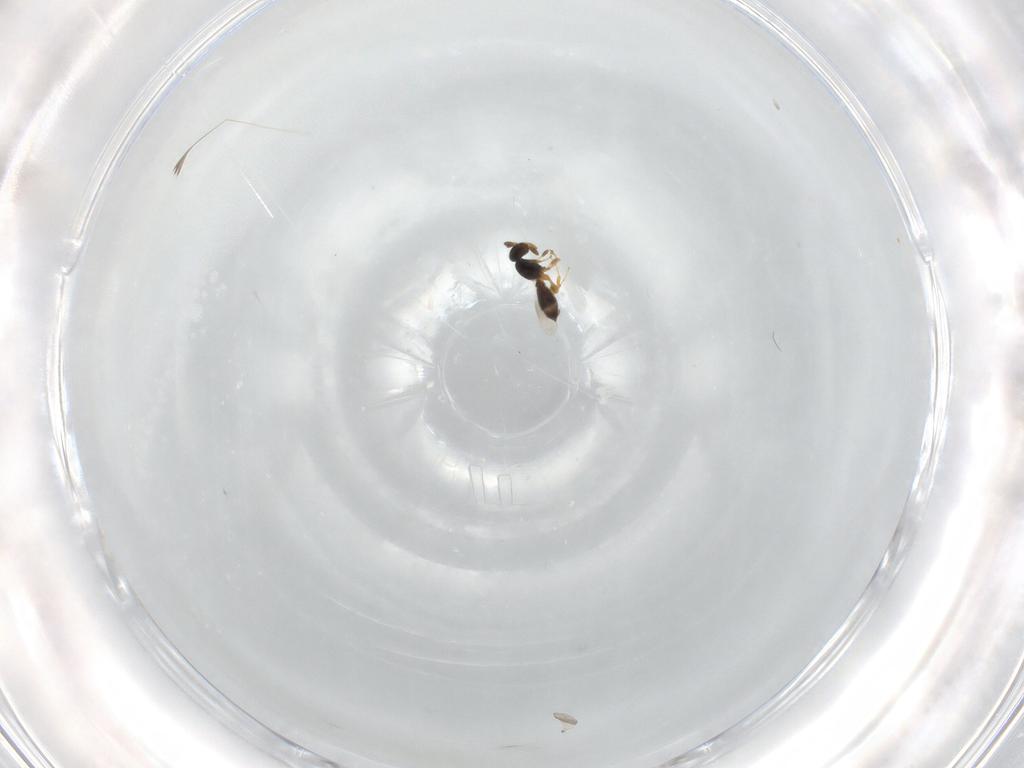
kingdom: Animalia
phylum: Arthropoda
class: Insecta
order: Hymenoptera
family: Platygastridae
